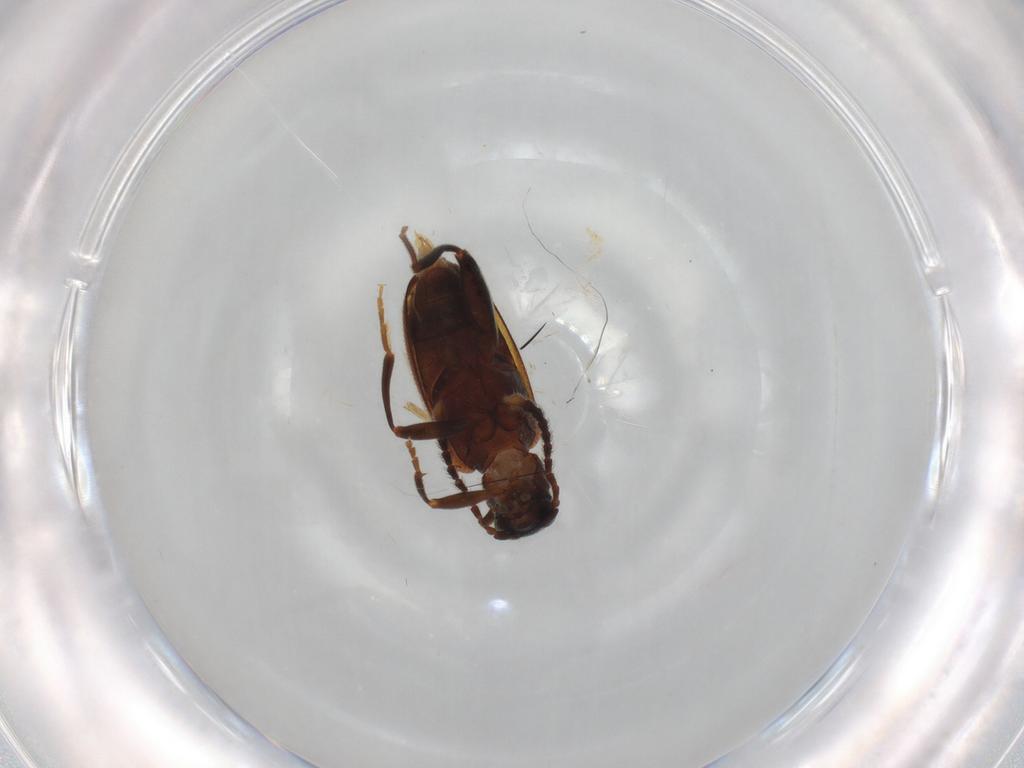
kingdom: Animalia
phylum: Arthropoda
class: Insecta
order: Coleoptera
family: Aderidae
